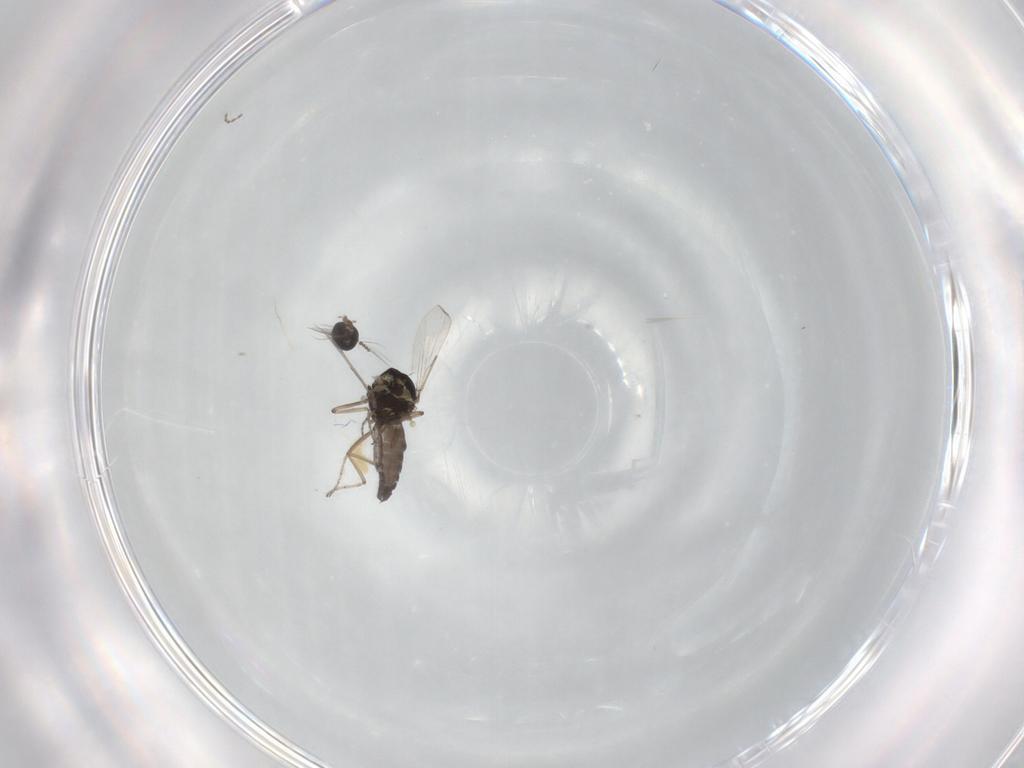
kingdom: Animalia
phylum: Arthropoda
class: Insecta
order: Diptera
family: Ceratopogonidae
